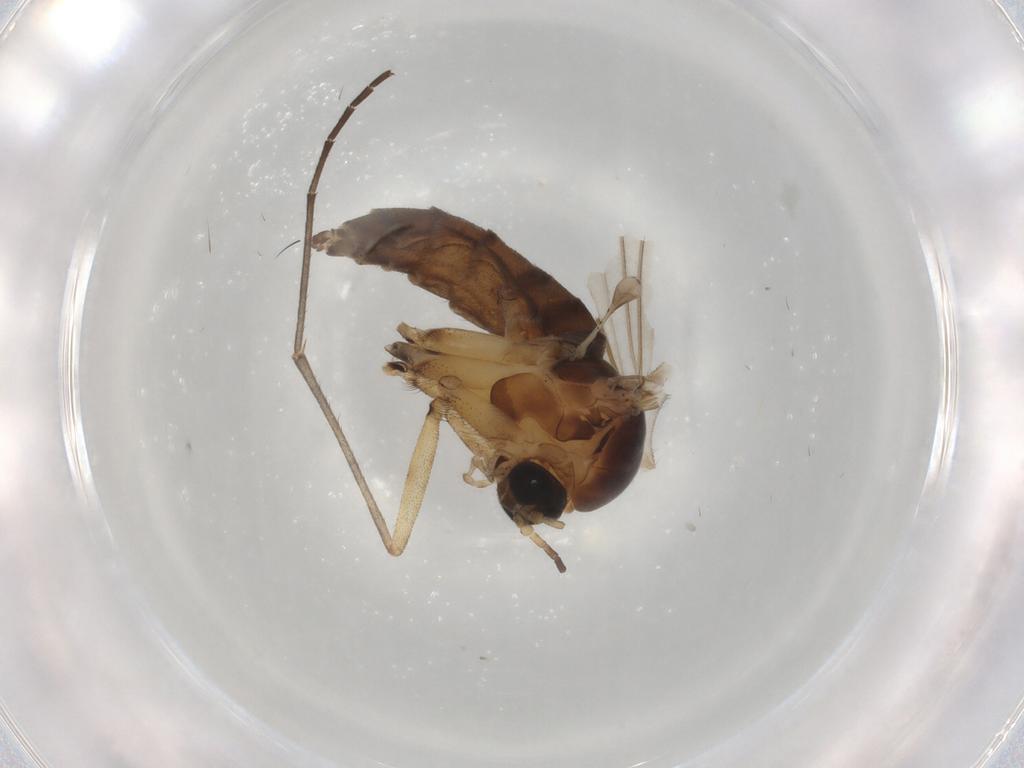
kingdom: Animalia
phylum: Arthropoda
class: Insecta
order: Diptera
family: Sciaridae
